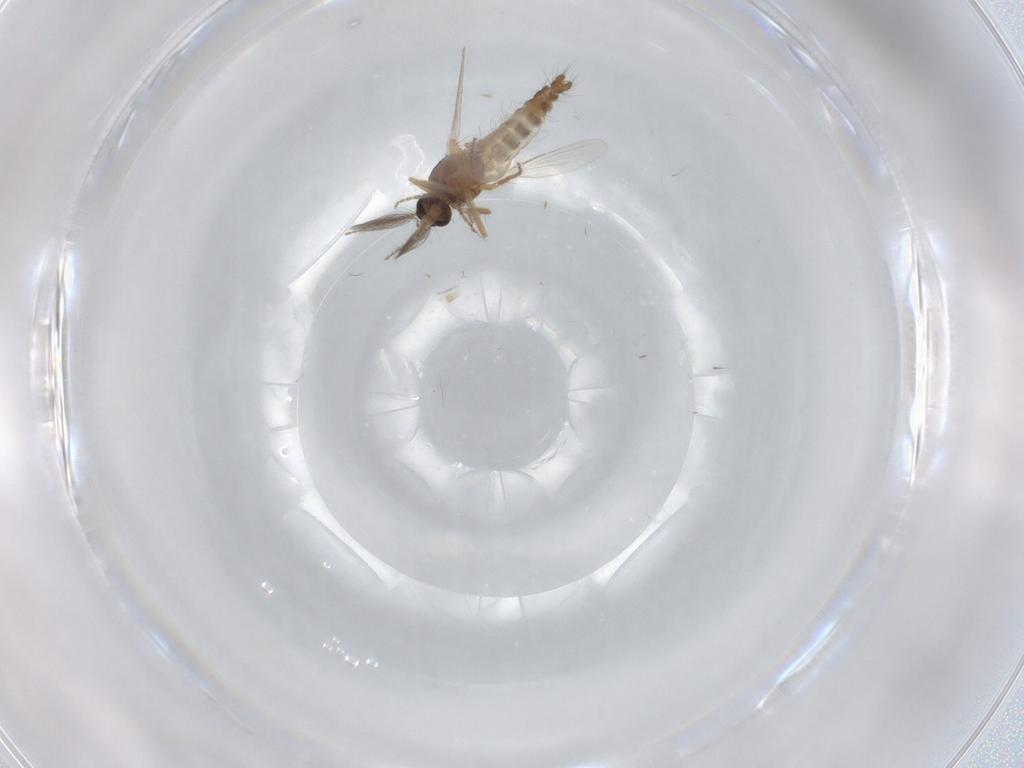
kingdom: Animalia
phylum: Arthropoda
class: Insecta
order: Diptera
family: Ceratopogonidae
